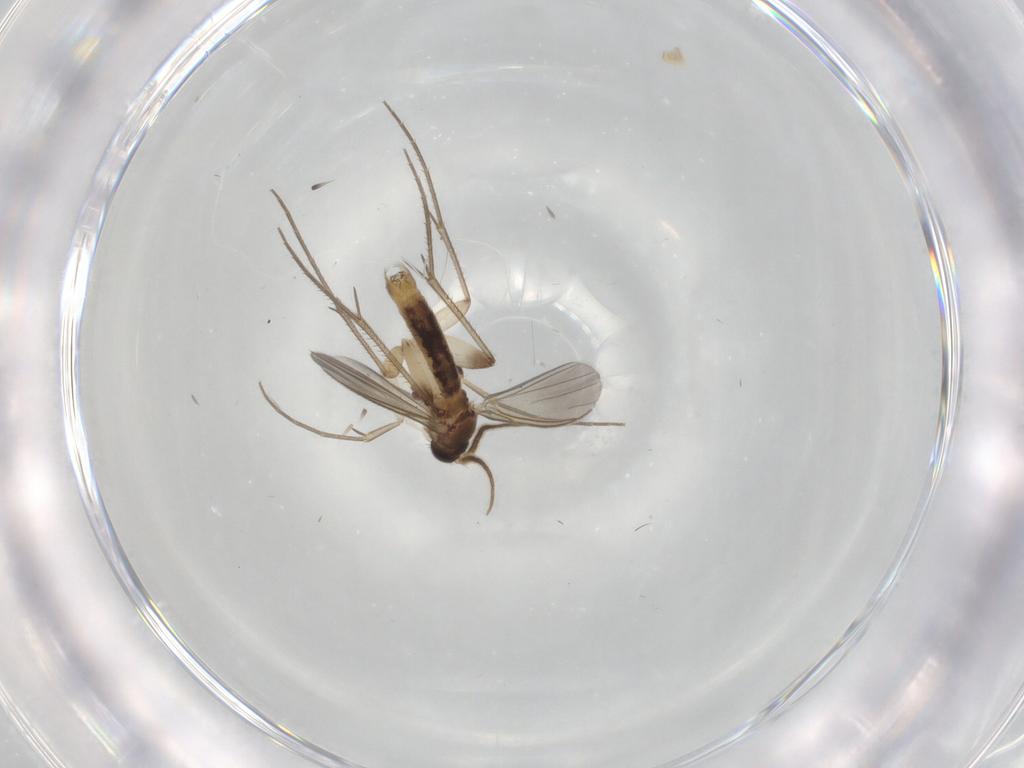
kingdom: Animalia
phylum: Arthropoda
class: Insecta
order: Diptera
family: Mycetophilidae
